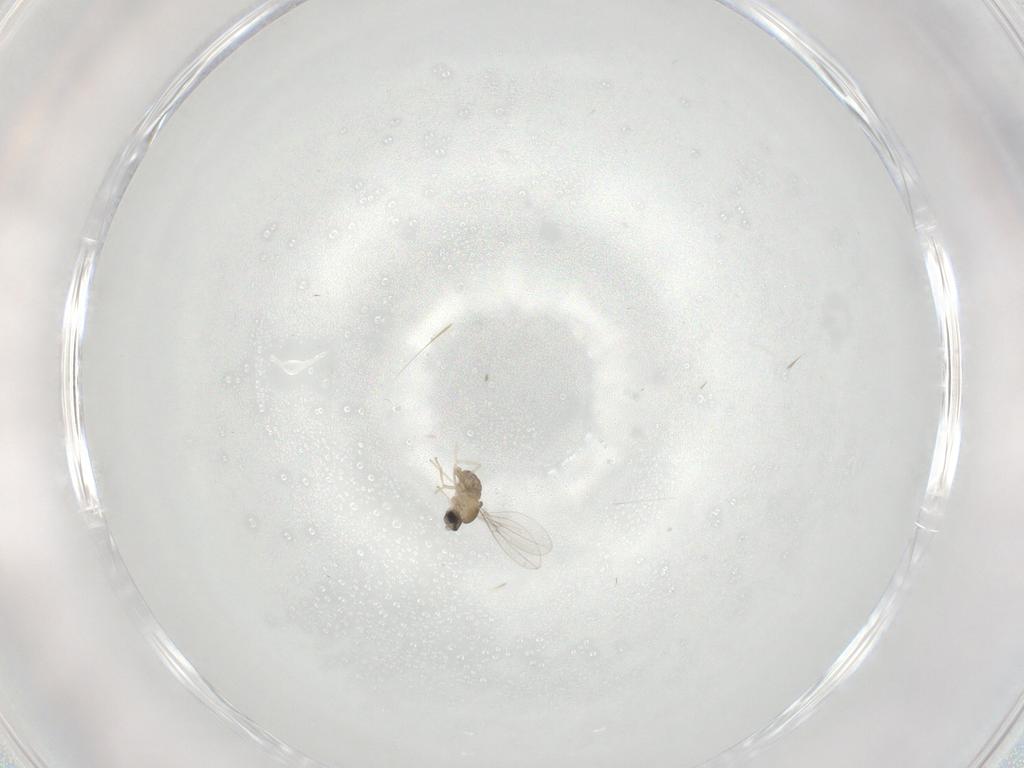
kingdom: Animalia
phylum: Arthropoda
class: Insecta
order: Diptera
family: Cecidomyiidae
